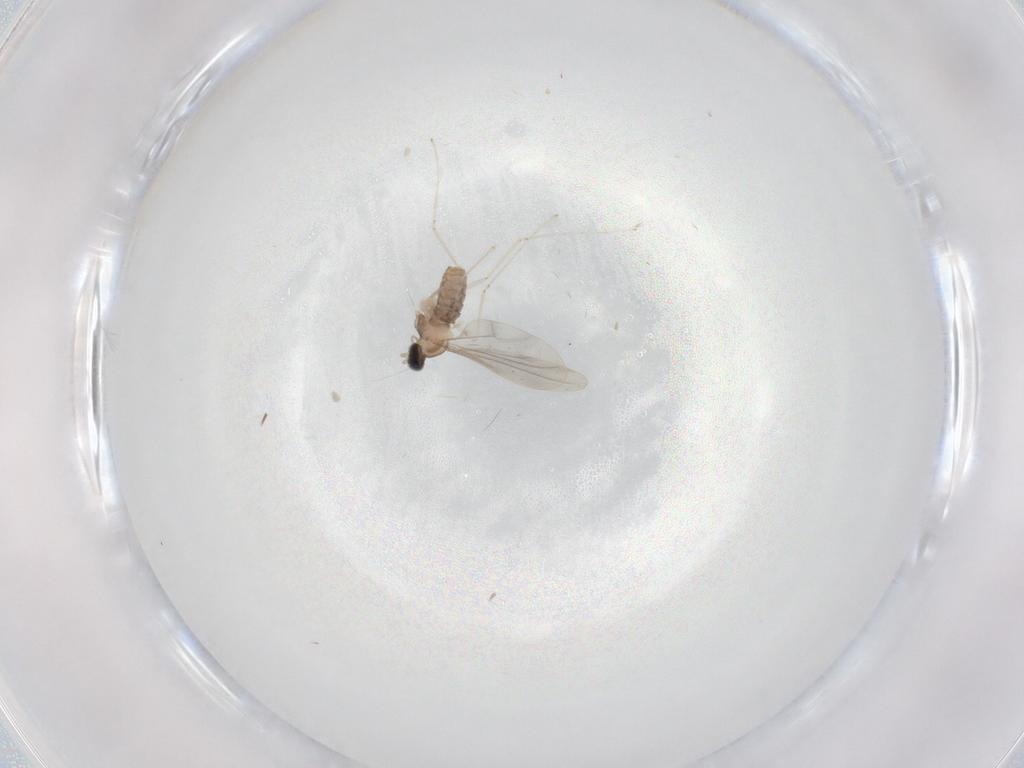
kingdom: Animalia
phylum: Arthropoda
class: Insecta
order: Diptera
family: Cecidomyiidae
